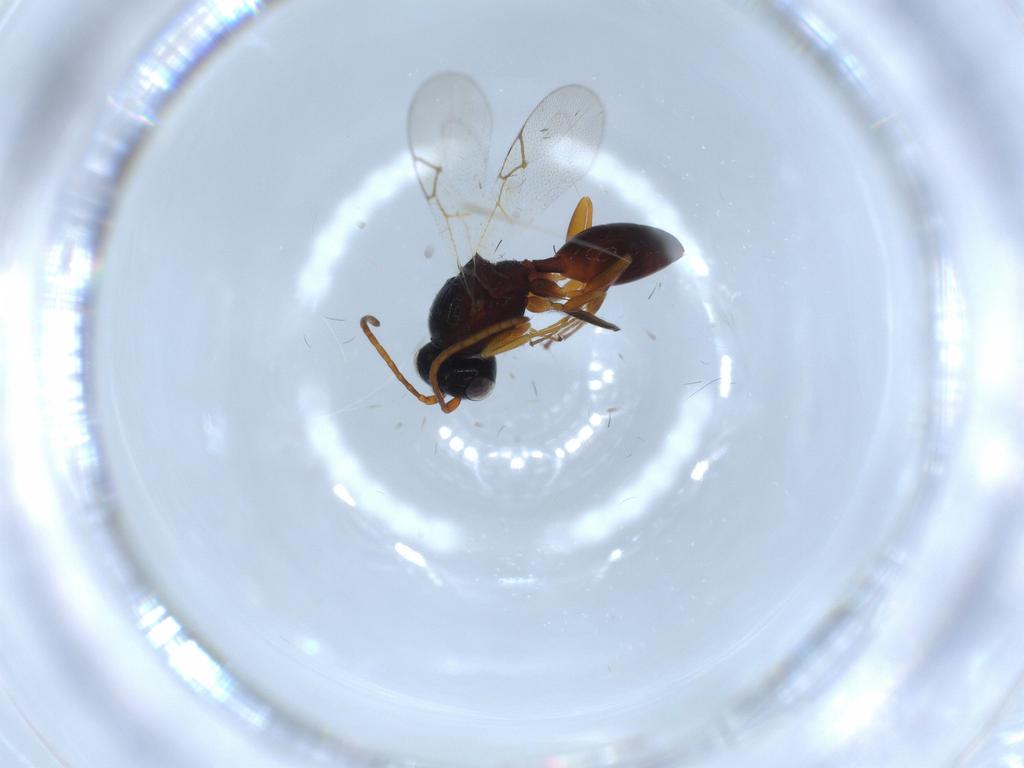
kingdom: Animalia
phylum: Arthropoda
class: Insecta
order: Hymenoptera
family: Figitidae
